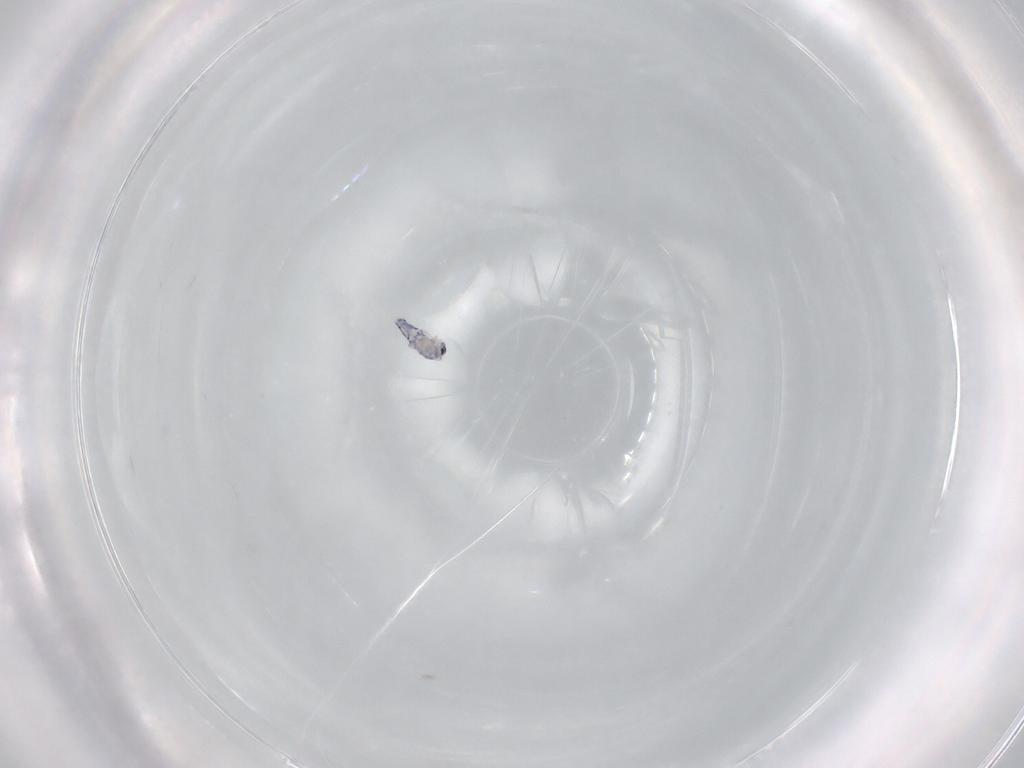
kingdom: Animalia
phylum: Arthropoda
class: Collembola
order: Entomobryomorpha
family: Entomobryidae
